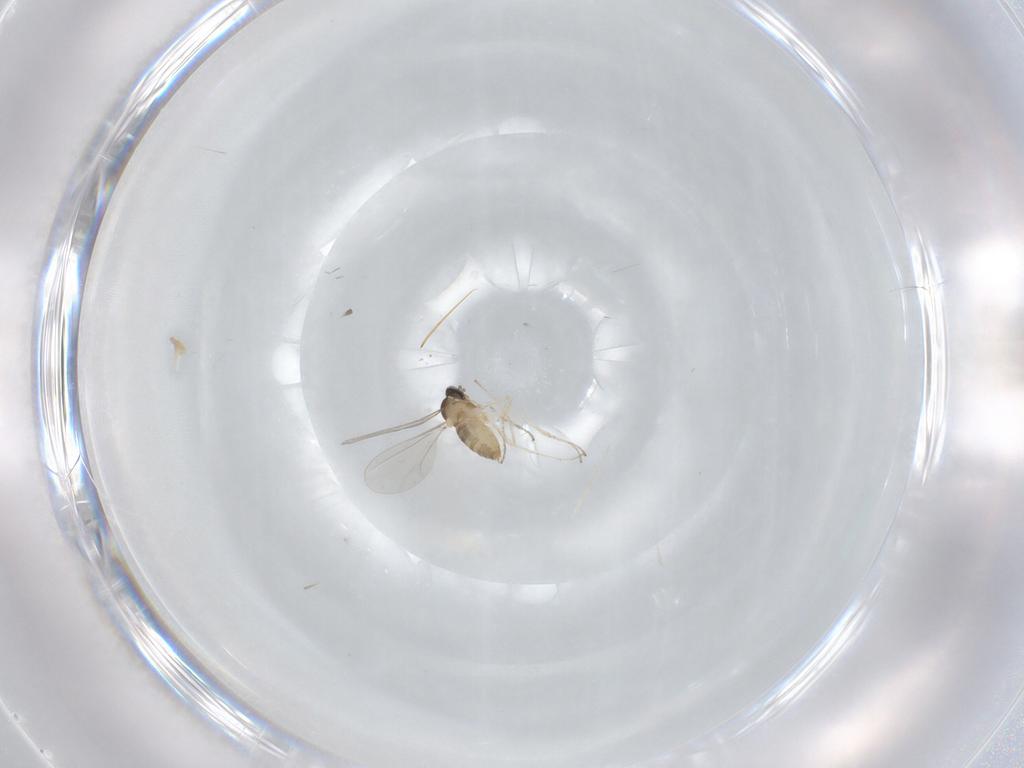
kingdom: Animalia
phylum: Arthropoda
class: Insecta
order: Diptera
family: Cecidomyiidae
